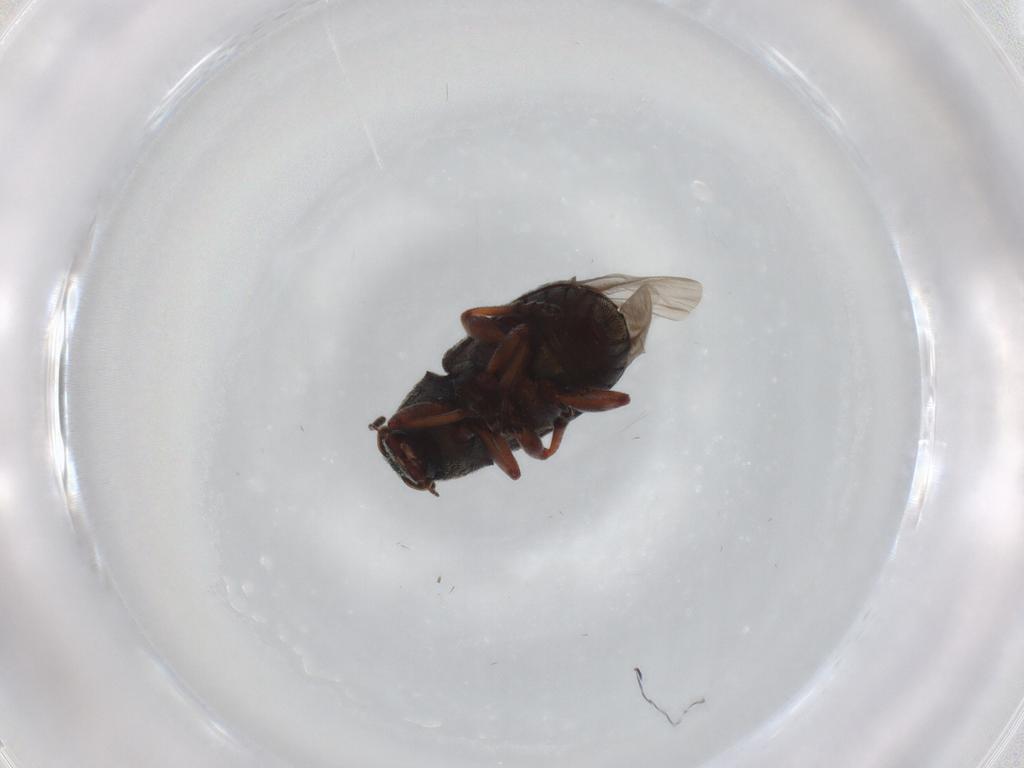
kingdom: Animalia
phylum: Arthropoda
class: Insecta
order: Coleoptera
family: Anthribidae
